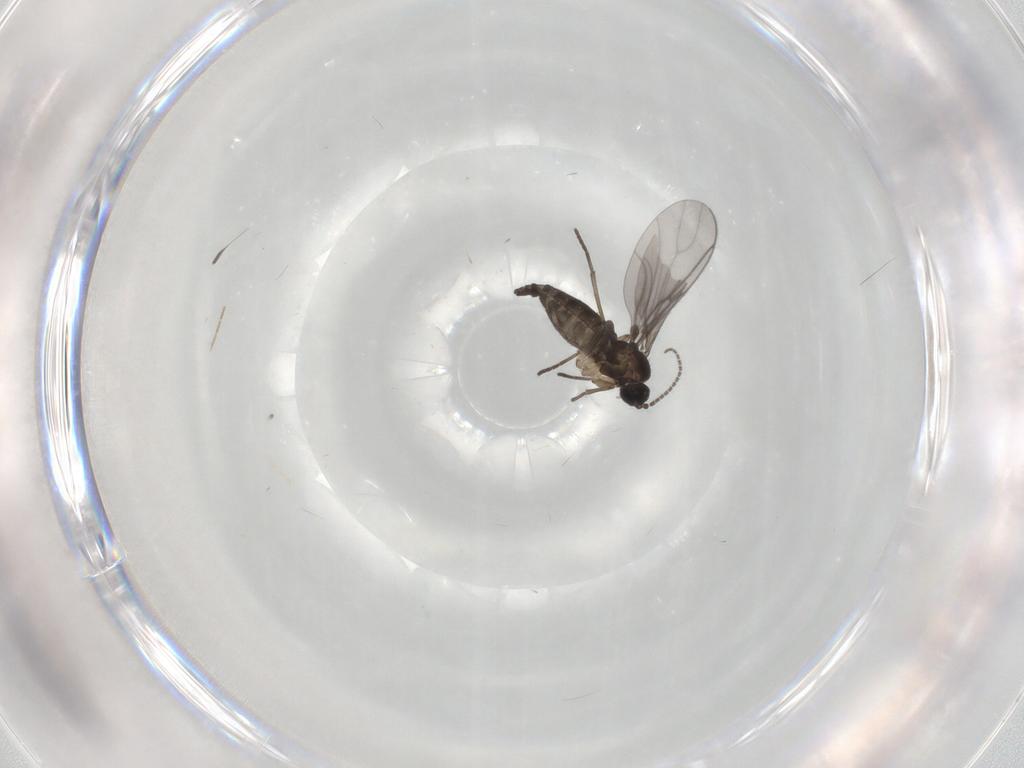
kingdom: Animalia
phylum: Arthropoda
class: Insecta
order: Diptera
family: Sciaridae
